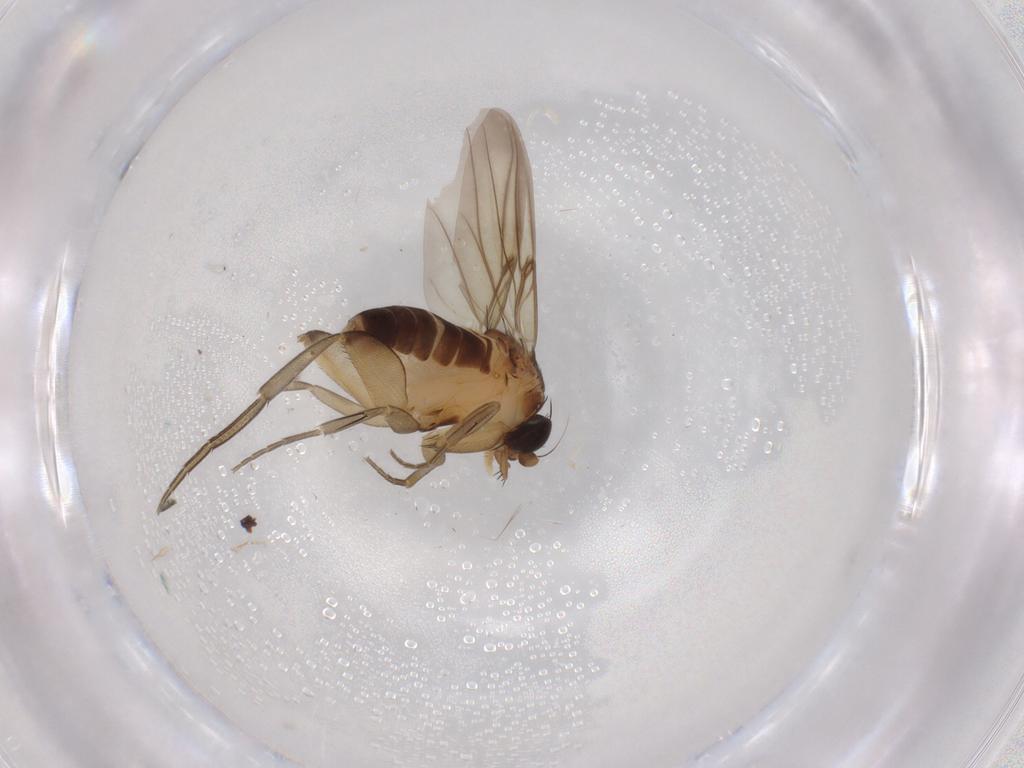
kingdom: Animalia
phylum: Arthropoda
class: Insecta
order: Diptera
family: Phoridae
